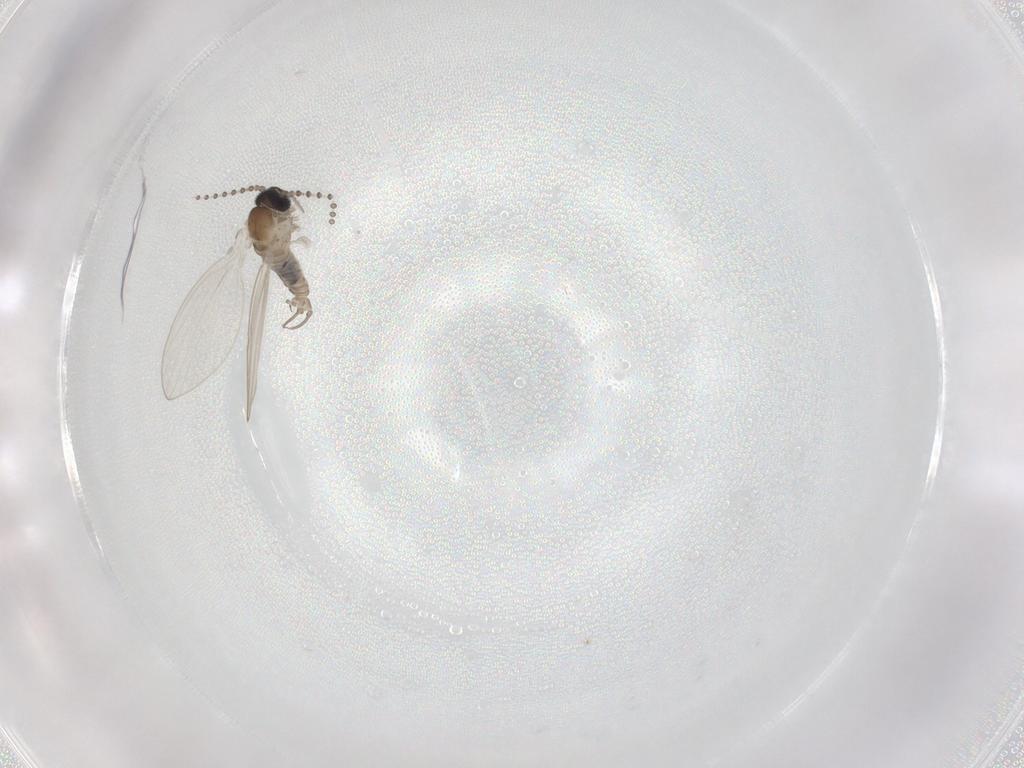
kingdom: Animalia
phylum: Arthropoda
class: Insecta
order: Diptera
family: Psychodidae
